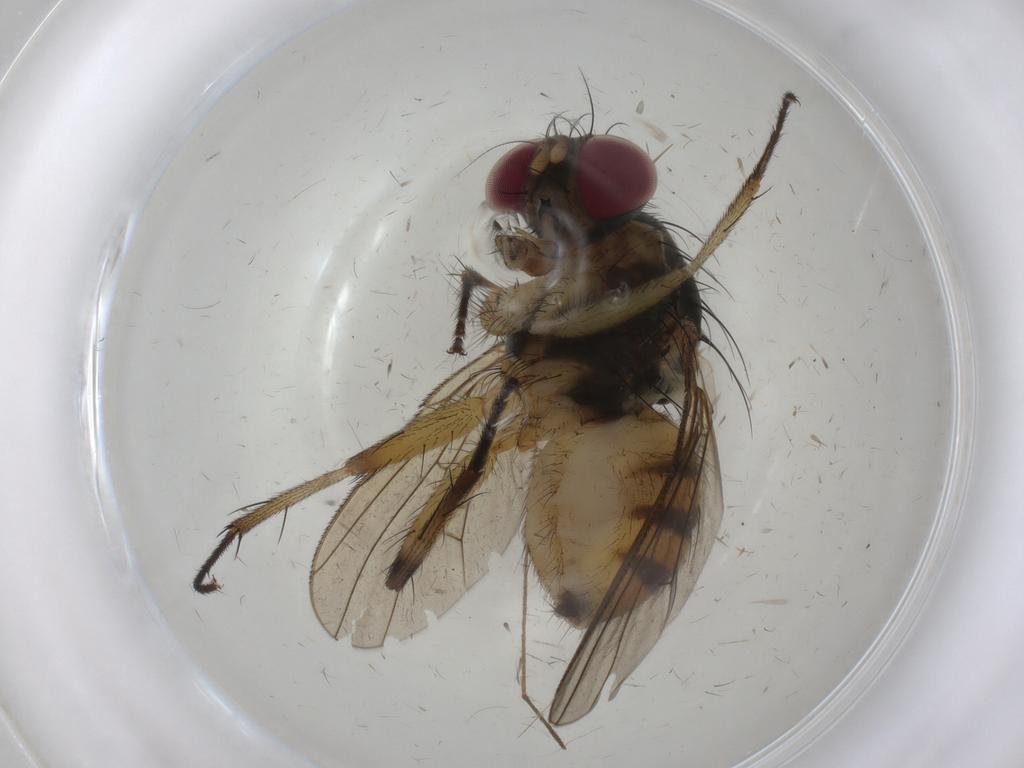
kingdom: Animalia
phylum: Arthropoda
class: Insecta
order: Diptera
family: Limoniidae
